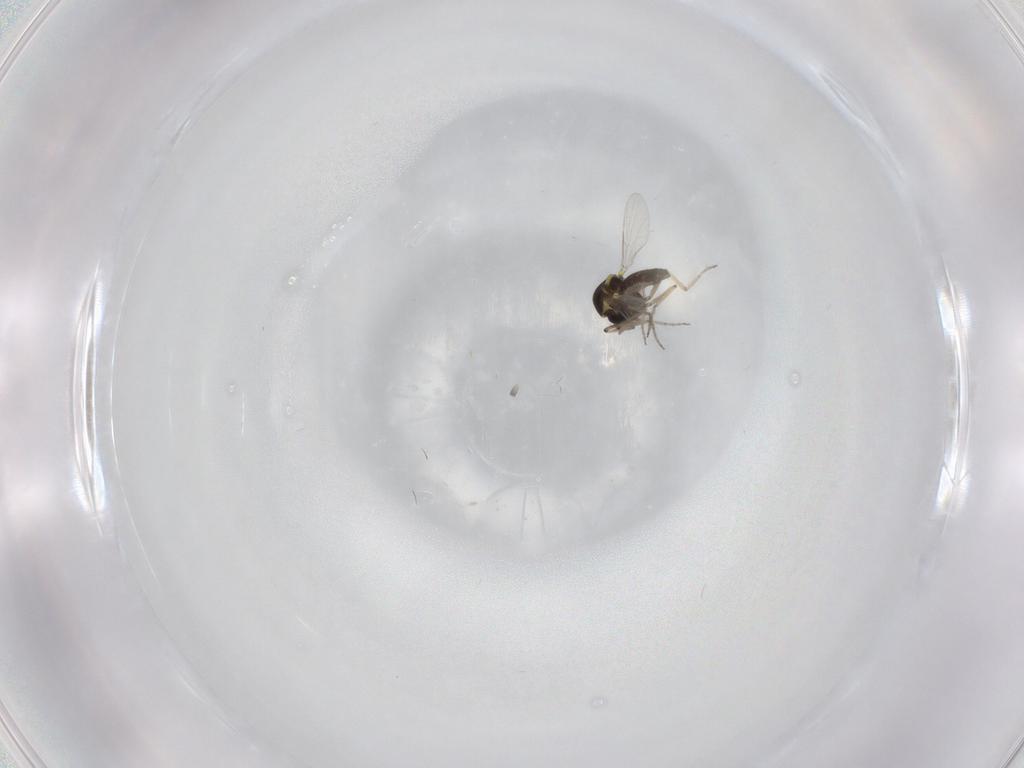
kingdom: Animalia
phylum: Arthropoda
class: Insecta
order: Diptera
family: Ceratopogonidae
